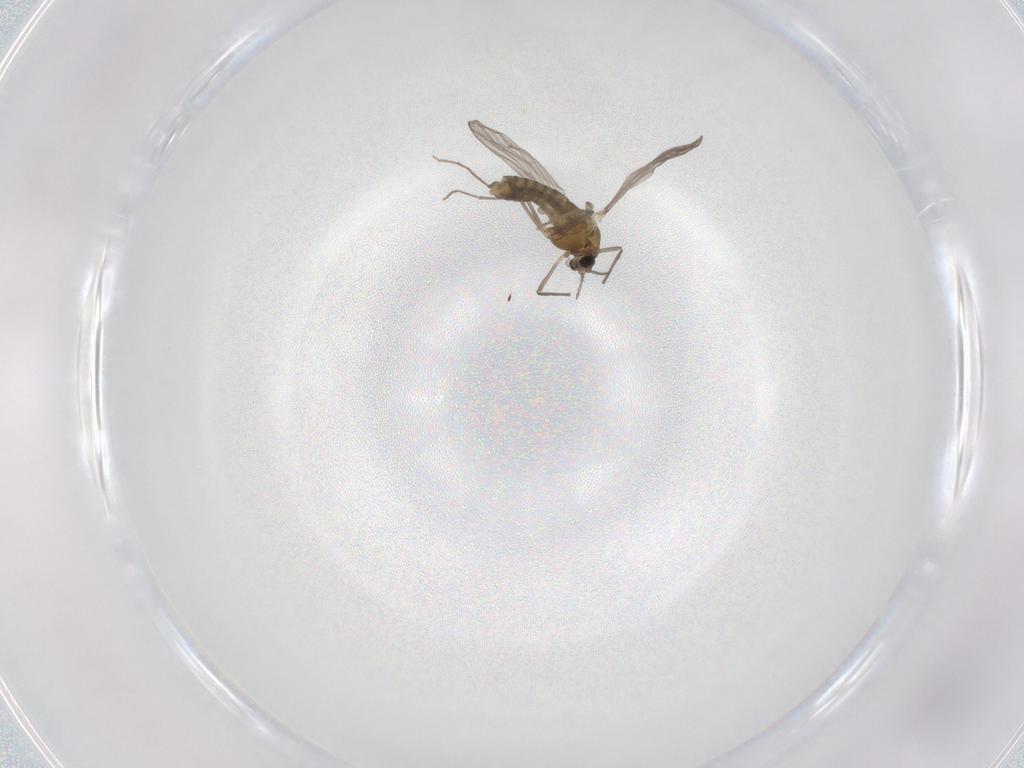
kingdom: Animalia
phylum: Arthropoda
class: Insecta
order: Diptera
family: Chironomidae
